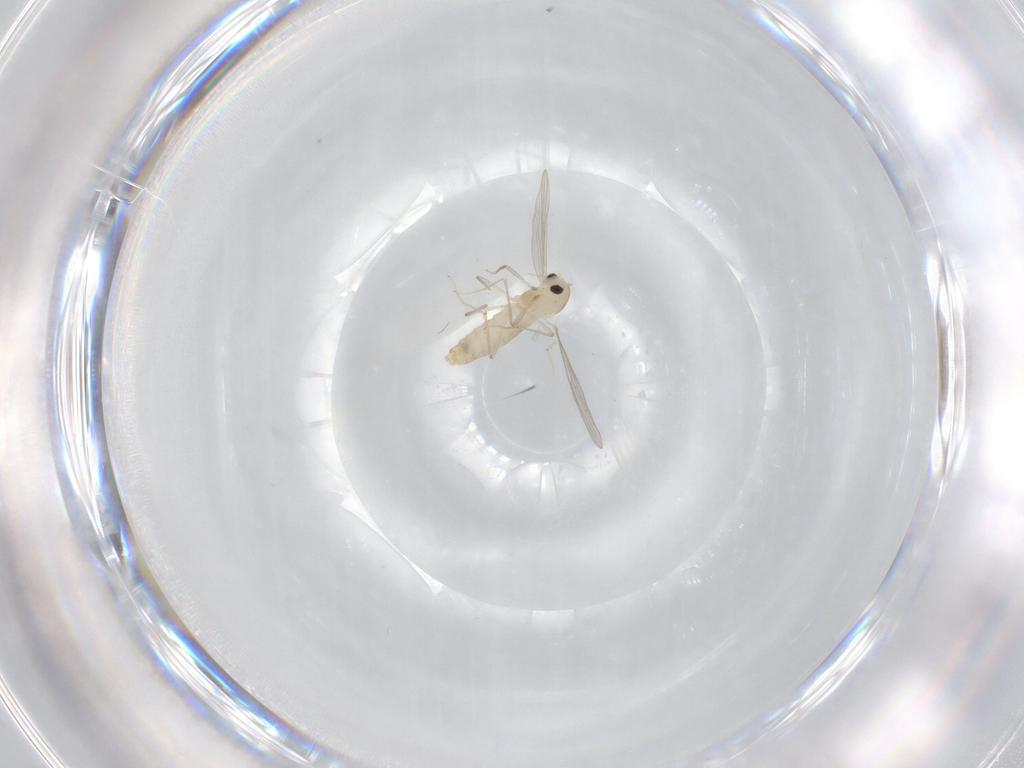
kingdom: Animalia
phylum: Arthropoda
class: Insecta
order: Diptera
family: Chironomidae
